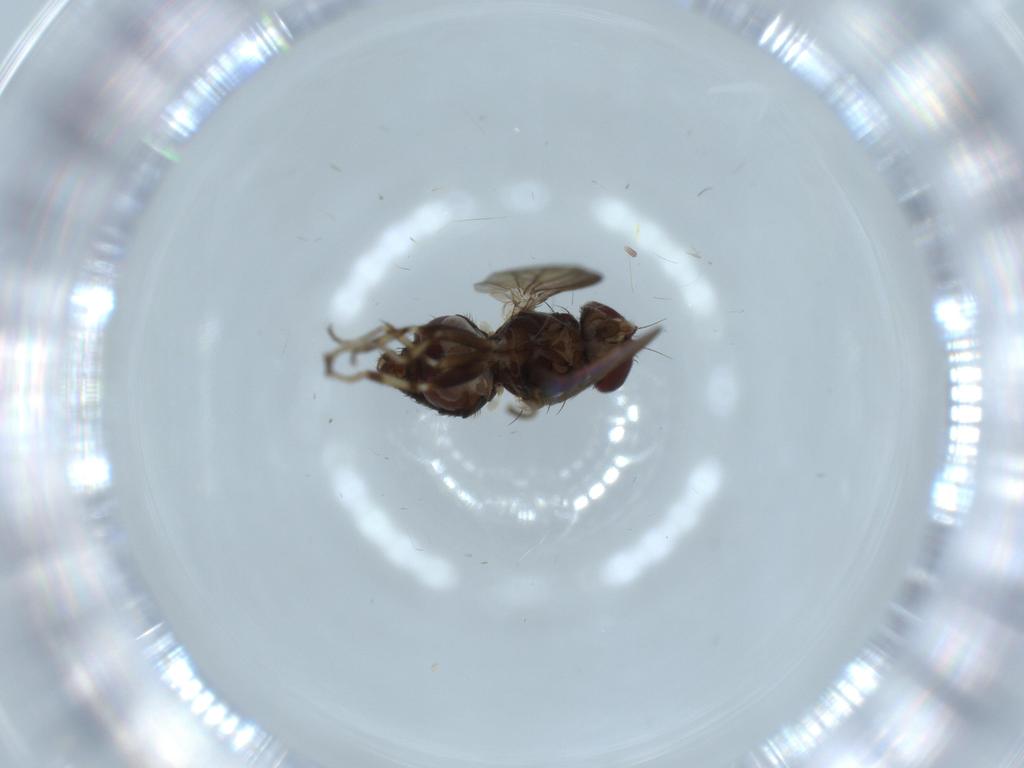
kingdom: Animalia
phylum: Arthropoda
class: Insecta
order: Diptera
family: Heleomyzidae
